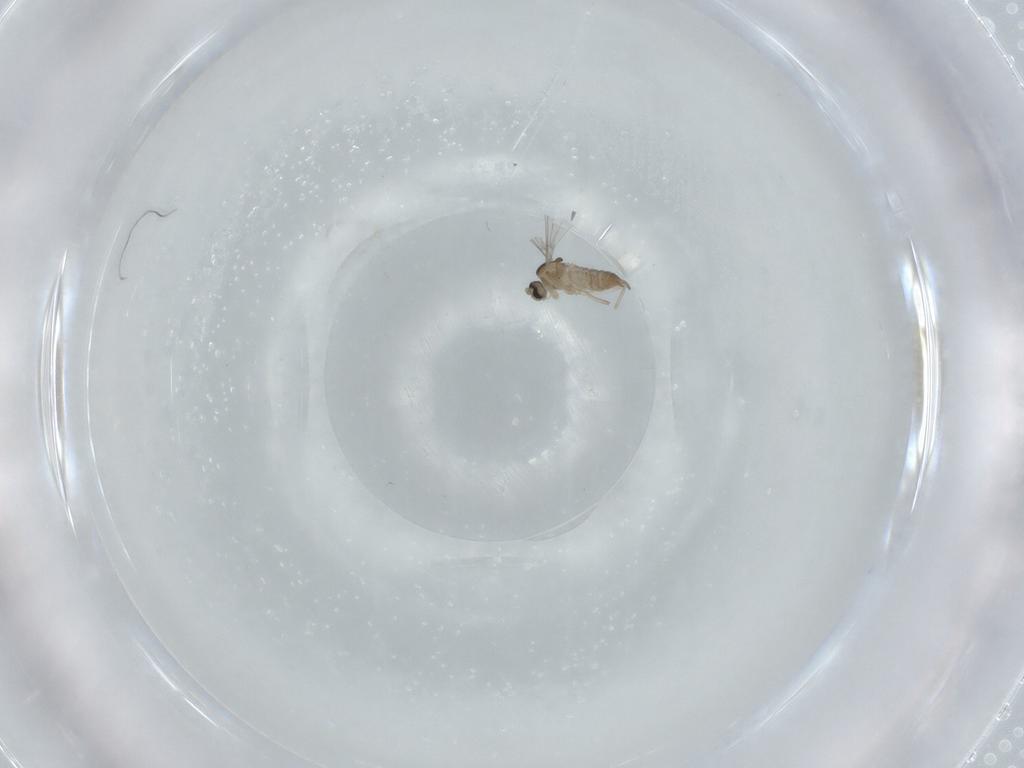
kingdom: Animalia
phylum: Arthropoda
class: Insecta
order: Diptera
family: Cecidomyiidae
